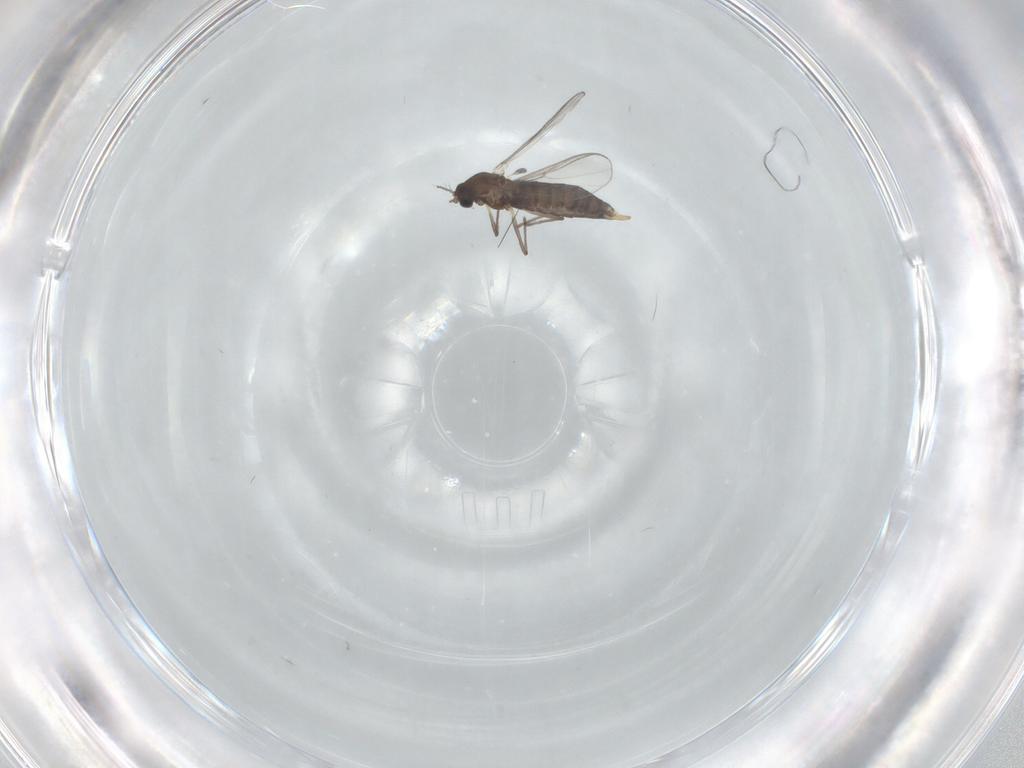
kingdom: Animalia
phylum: Arthropoda
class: Insecta
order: Diptera
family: Chironomidae
